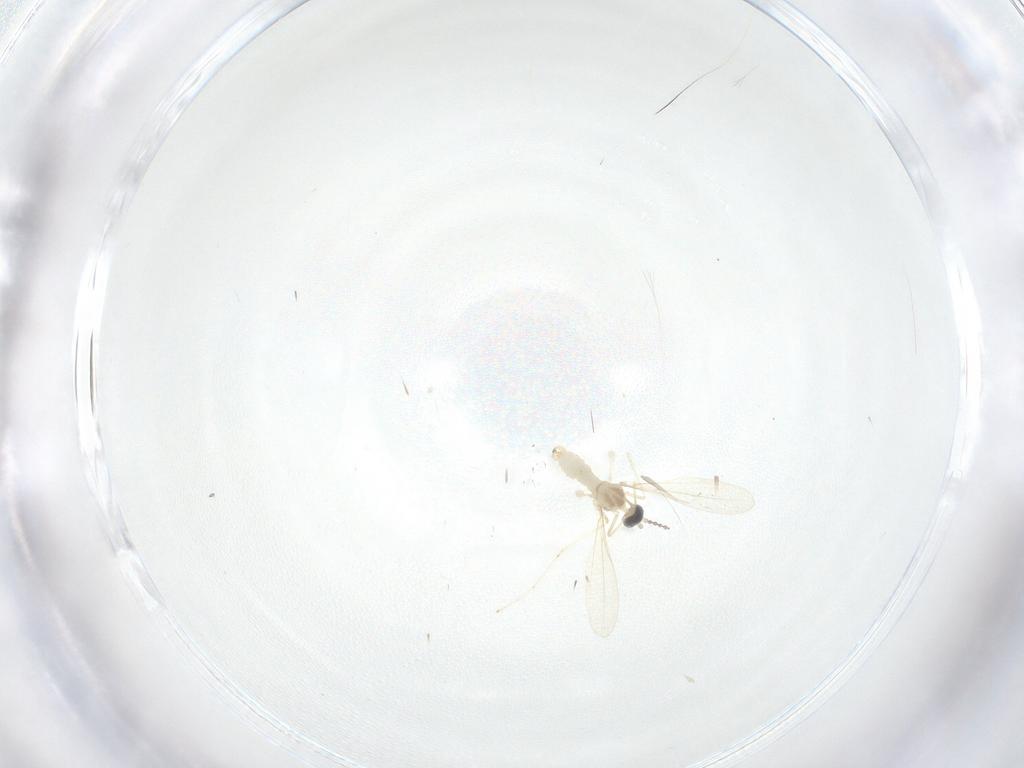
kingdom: Animalia
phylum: Arthropoda
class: Insecta
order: Diptera
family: Cecidomyiidae
